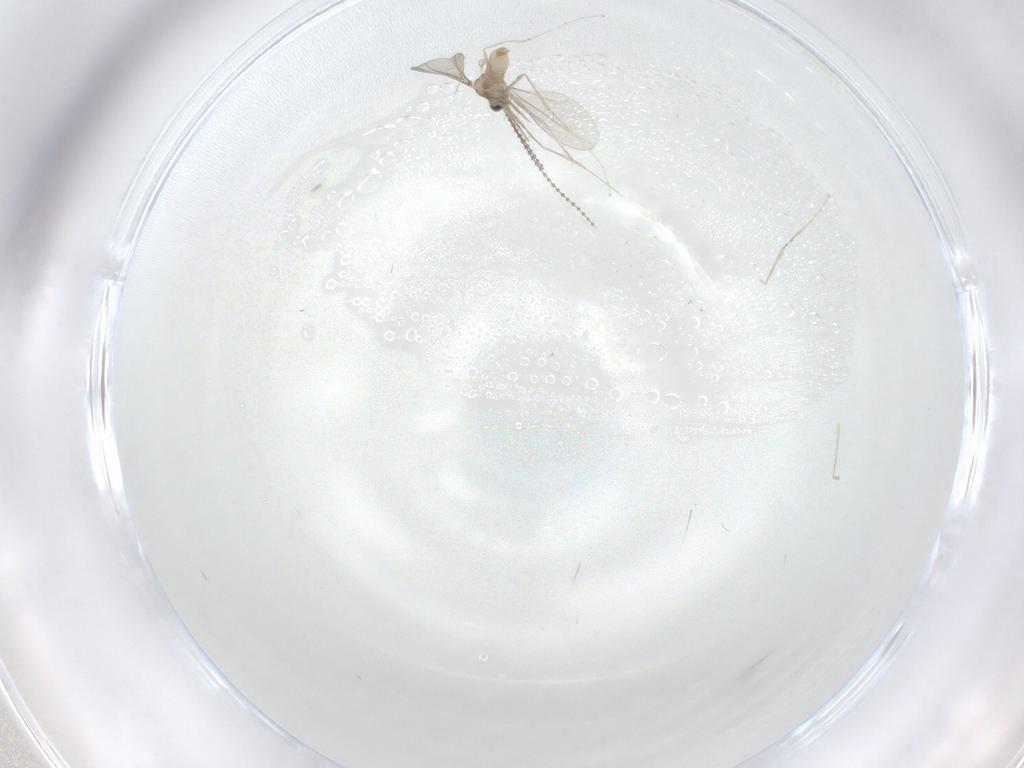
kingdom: Animalia
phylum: Arthropoda
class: Insecta
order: Diptera
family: Cecidomyiidae
